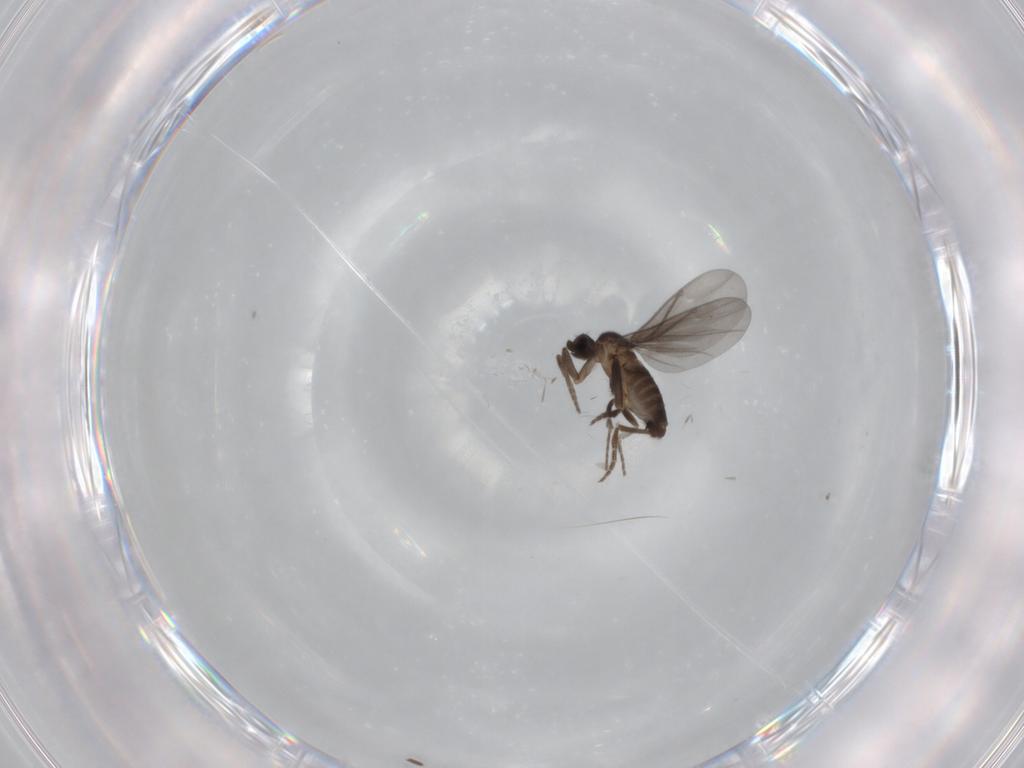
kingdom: Animalia
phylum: Arthropoda
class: Insecta
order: Diptera
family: Phoridae
